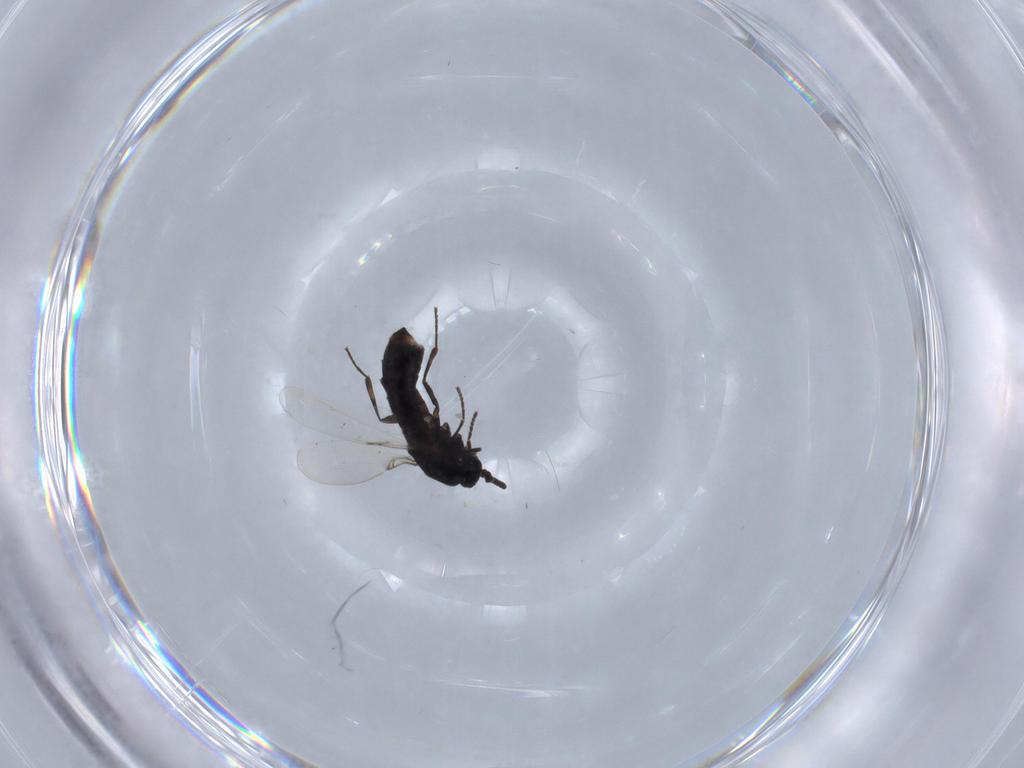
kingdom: Animalia
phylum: Arthropoda
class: Insecta
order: Diptera
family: Scatopsidae
